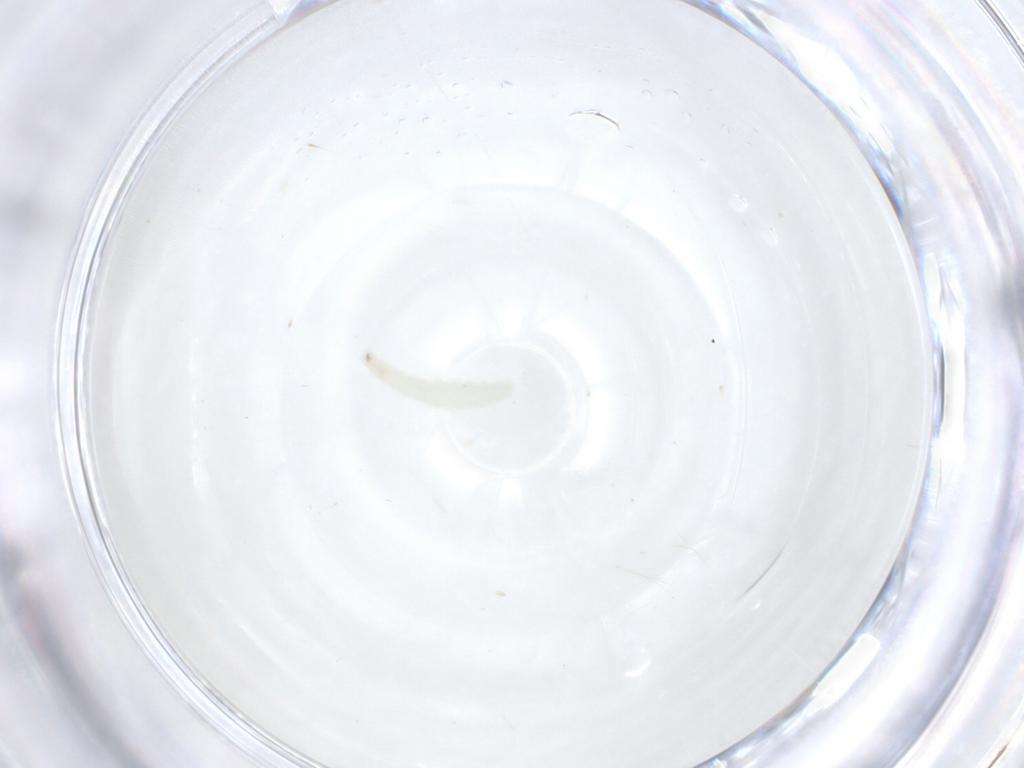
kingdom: Animalia
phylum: Arthropoda
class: Insecta
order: Diptera
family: Sarcophagidae
